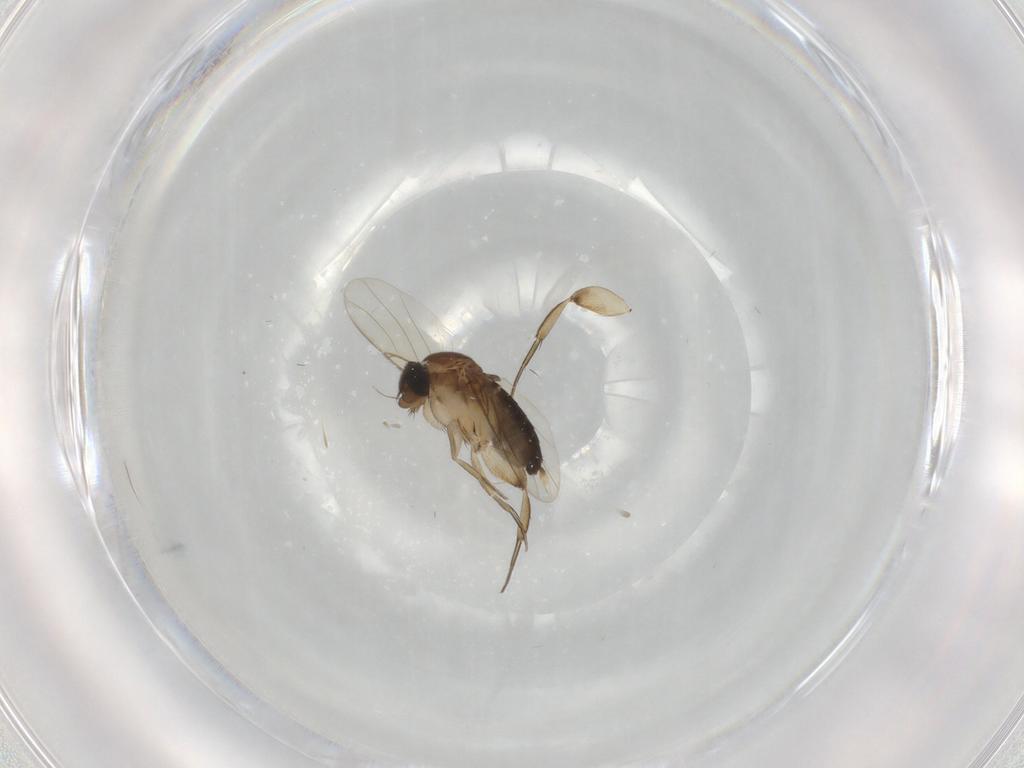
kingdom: Animalia
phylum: Arthropoda
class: Insecta
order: Diptera
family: Phoridae
